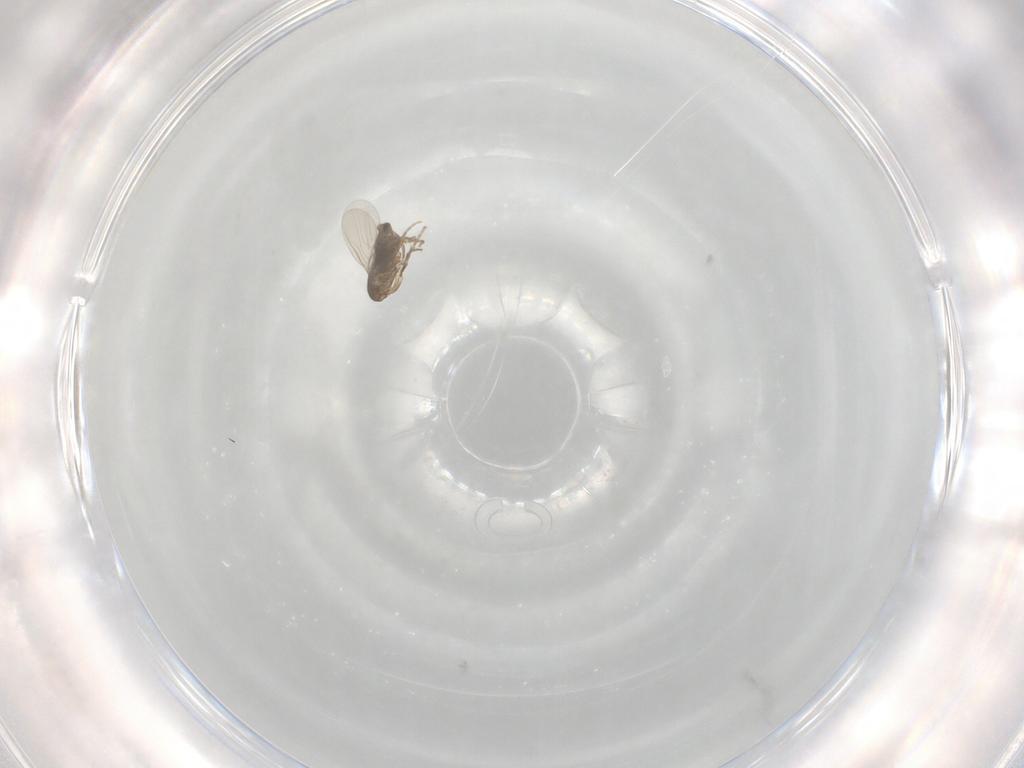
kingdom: Animalia
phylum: Arthropoda
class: Insecta
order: Diptera
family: Phoridae
